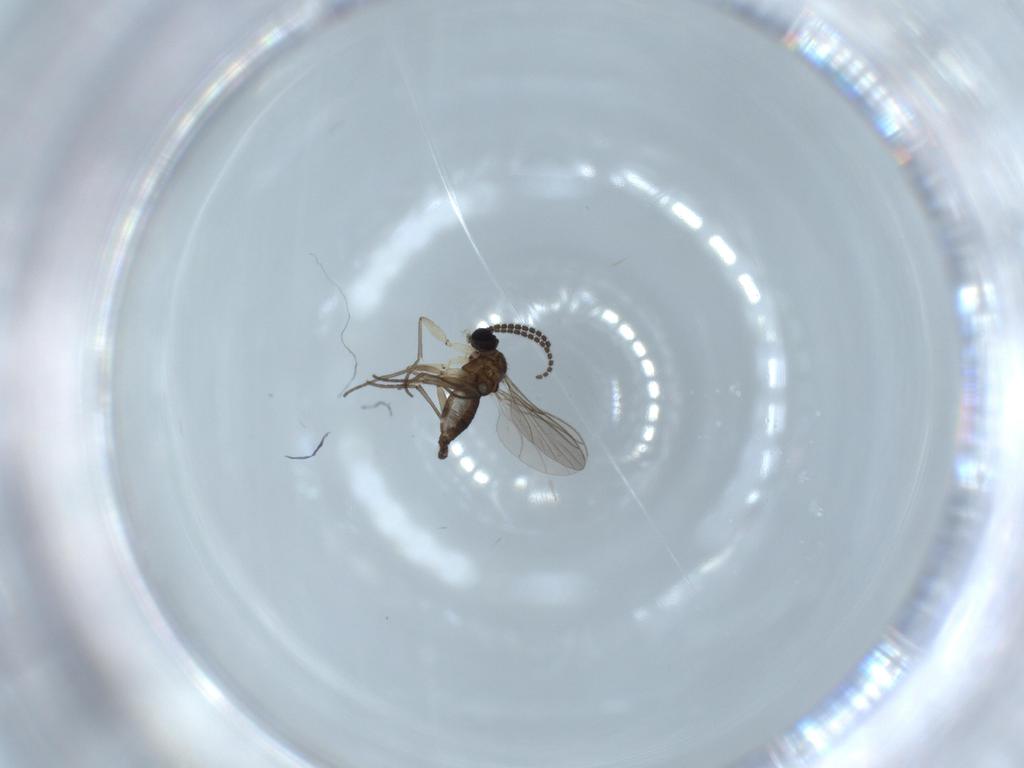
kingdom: Animalia
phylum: Arthropoda
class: Insecta
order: Diptera
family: Sciaridae
